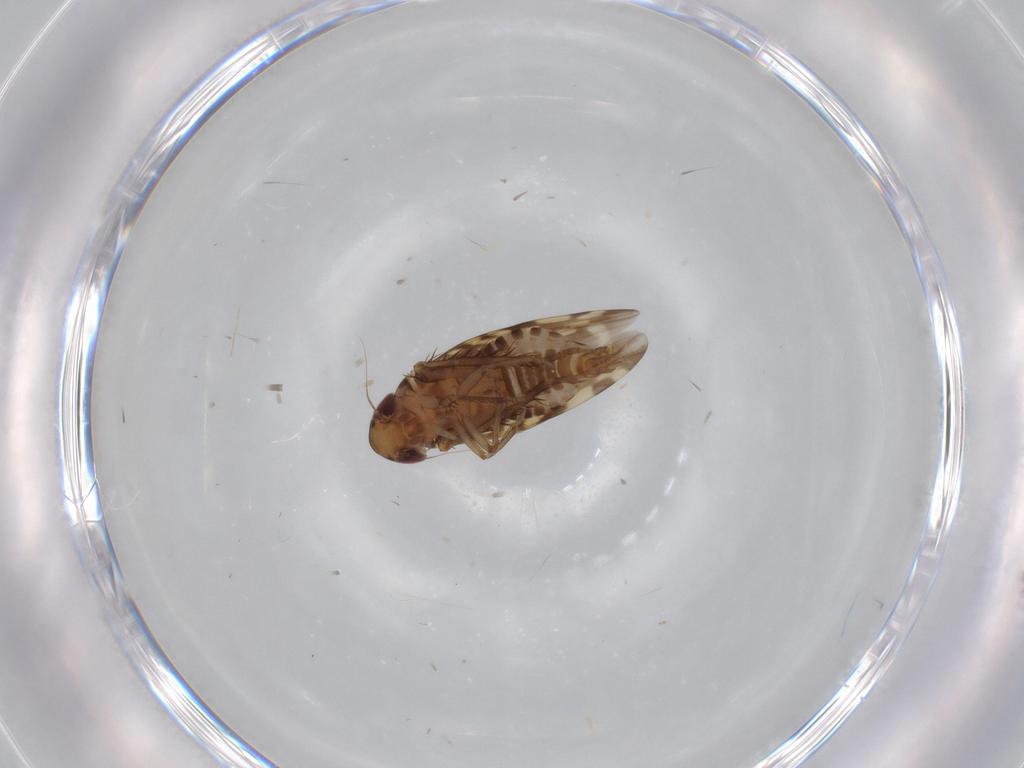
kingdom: Animalia
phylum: Arthropoda
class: Insecta
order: Hemiptera
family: Cicadellidae
